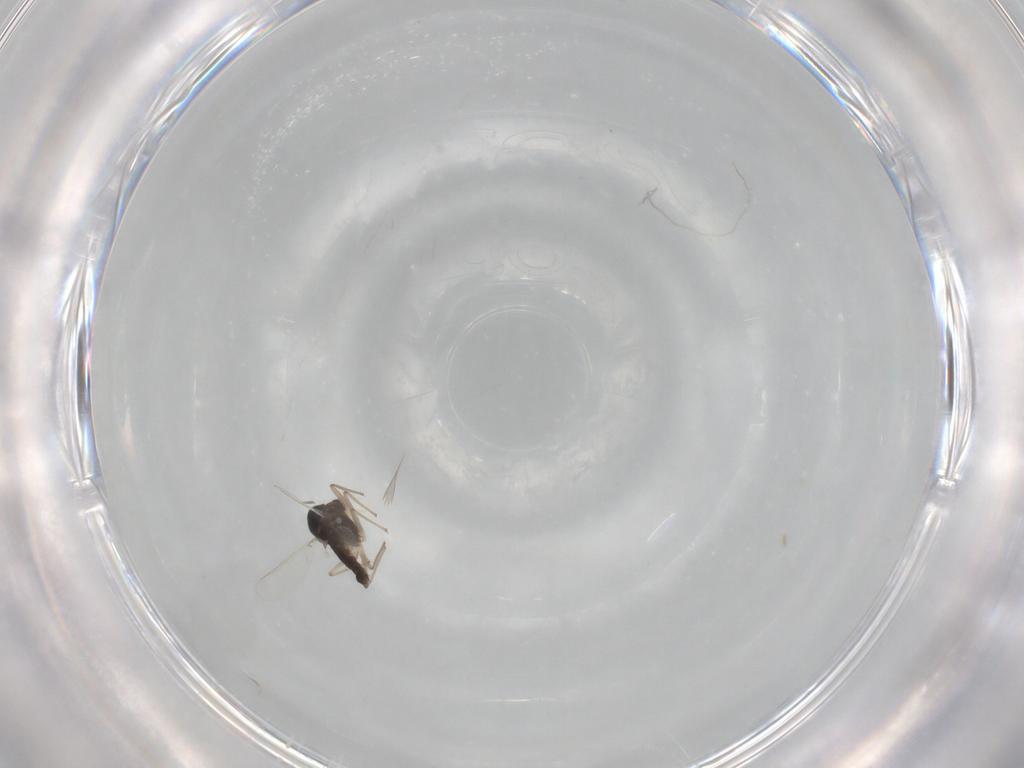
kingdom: Animalia
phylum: Arthropoda
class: Insecta
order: Diptera
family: Chironomidae
